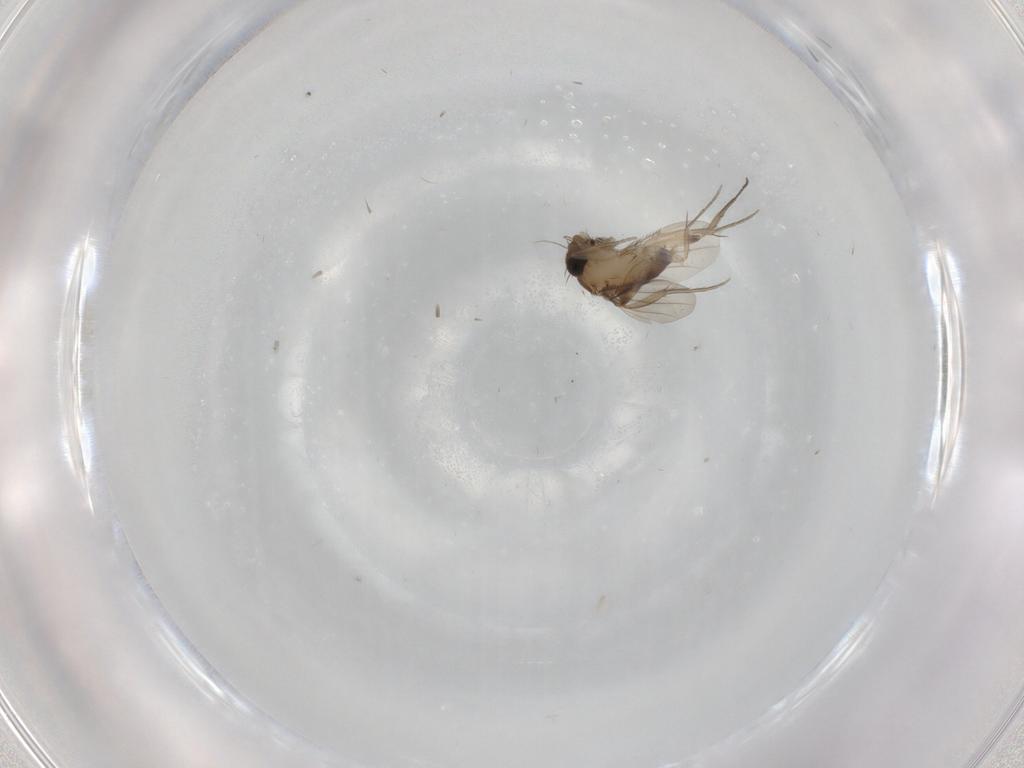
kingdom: Animalia
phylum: Arthropoda
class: Insecta
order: Diptera
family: Phoridae
